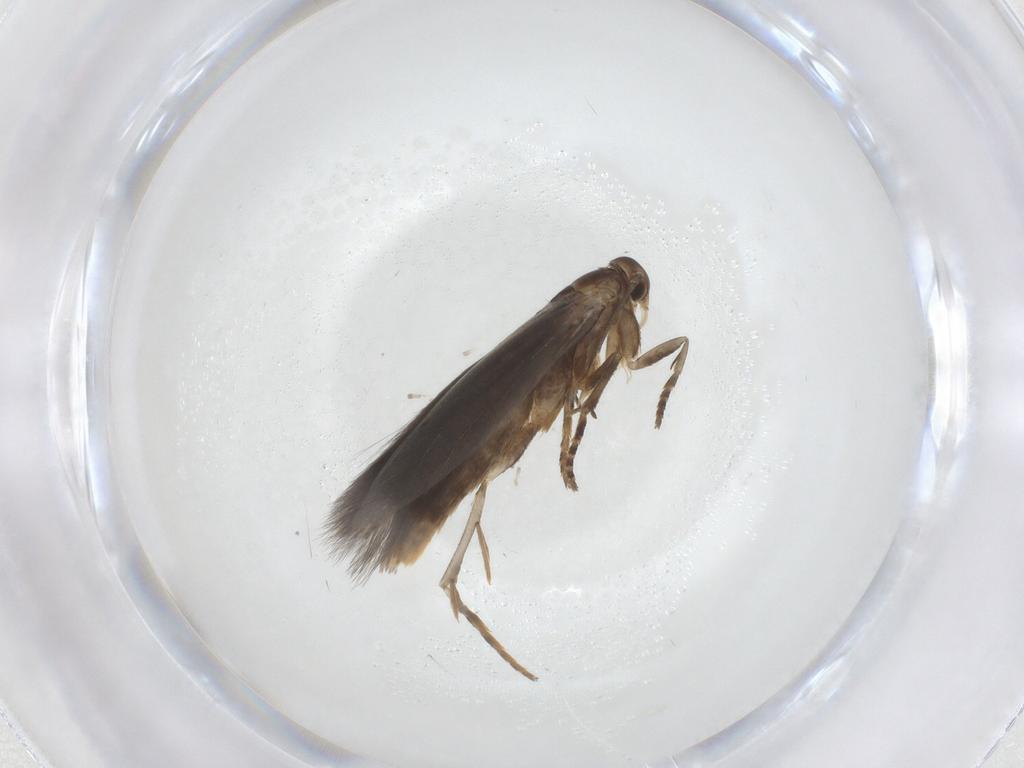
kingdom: Animalia
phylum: Arthropoda
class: Insecta
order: Lepidoptera
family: Elachistidae
